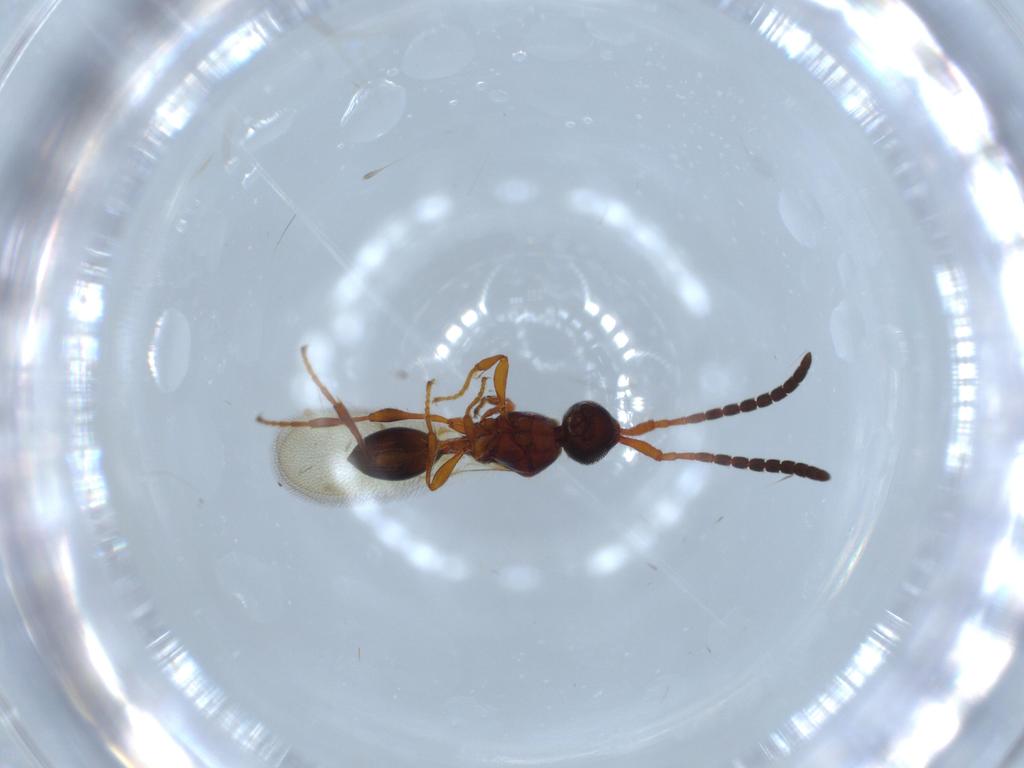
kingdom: Animalia
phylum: Arthropoda
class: Insecta
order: Hymenoptera
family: Diapriidae
